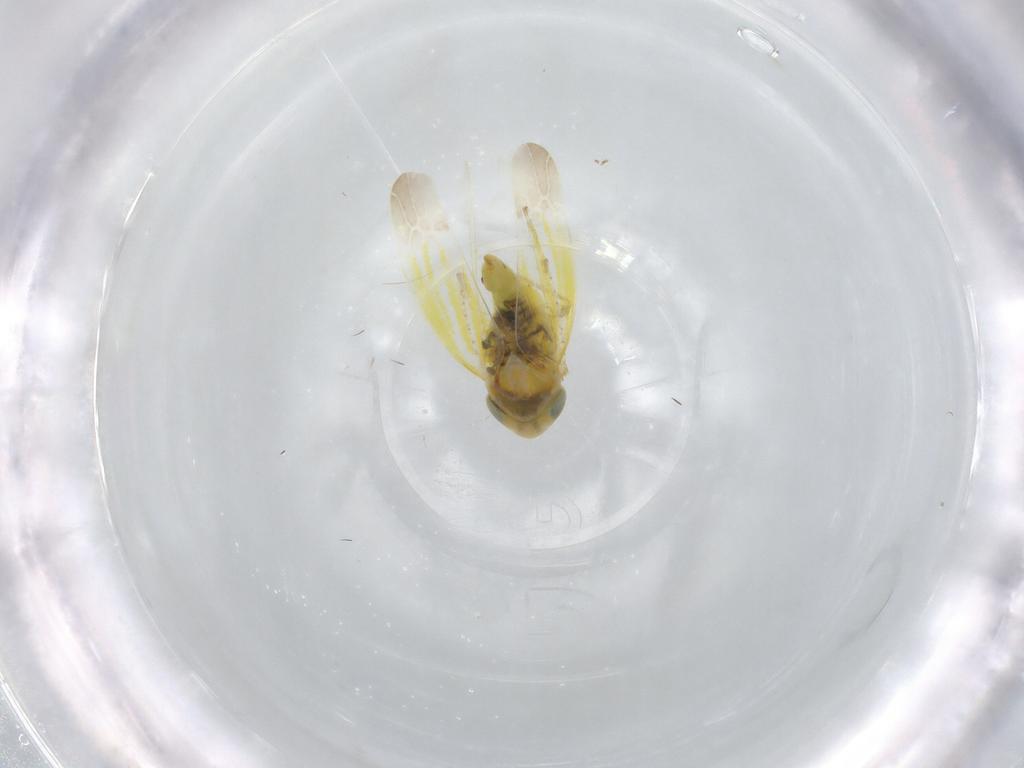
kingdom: Animalia
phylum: Arthropoda
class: Insecta
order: Hemiptera
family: Cicadellidae
